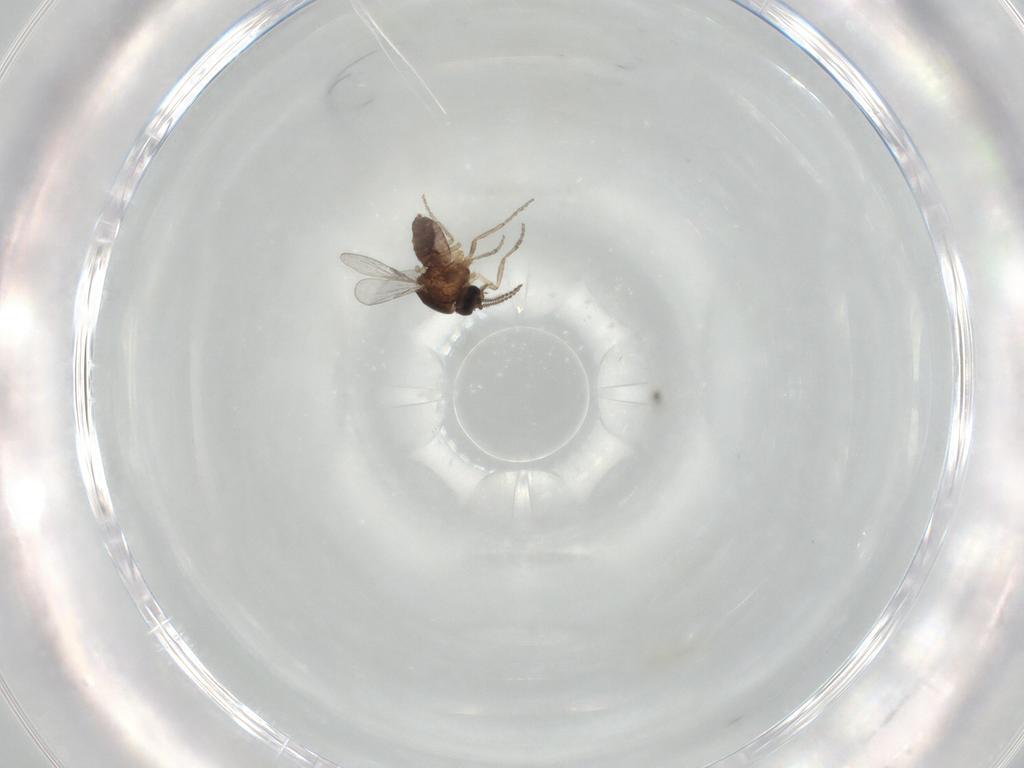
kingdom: Animalia
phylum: Arthropoda
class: Insecta
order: Diptera
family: Ceratopogonidae
